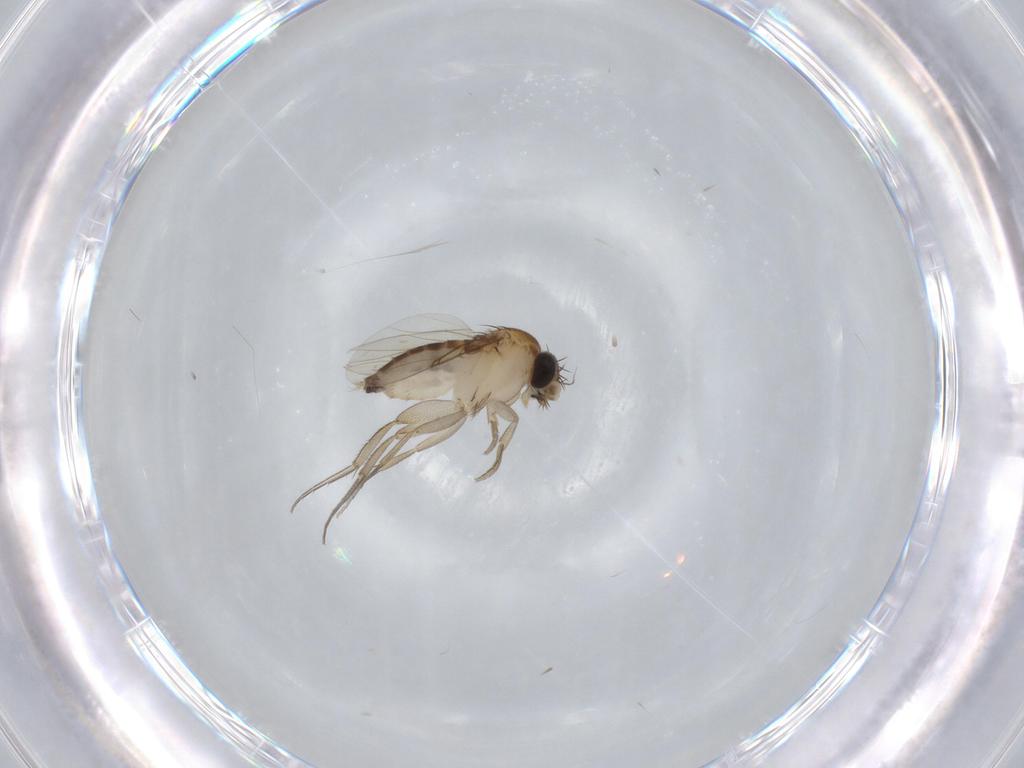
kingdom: Animalia
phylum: Arthropoda
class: Insecta
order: Diptera
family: Phoridae
